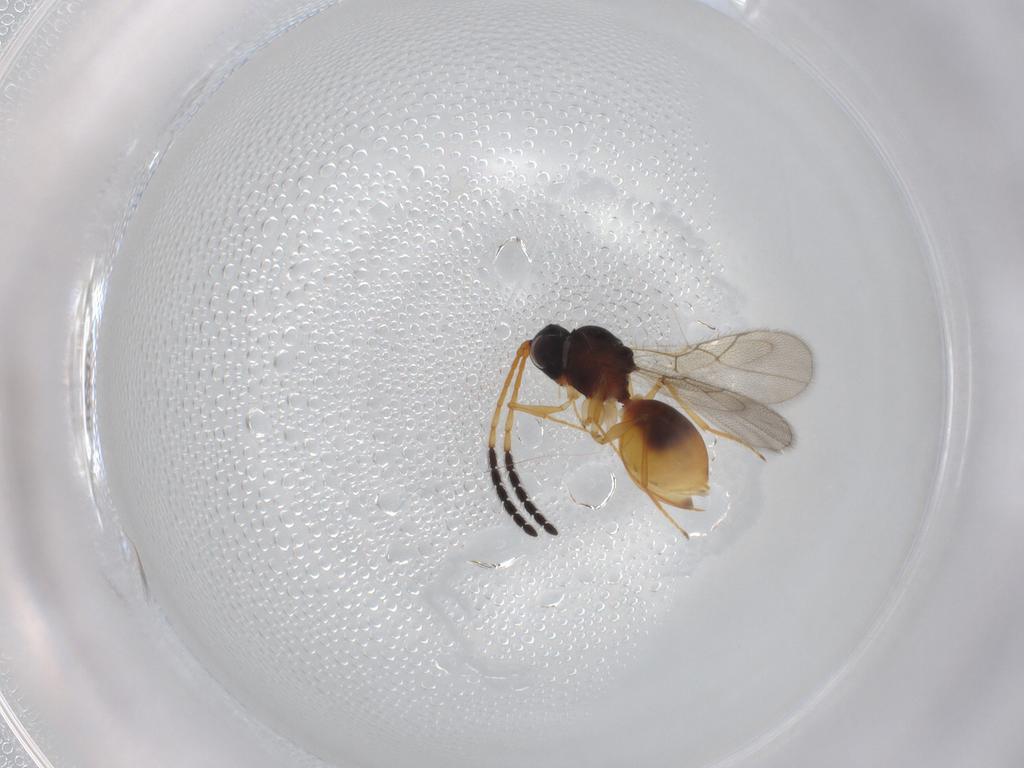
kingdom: Animalia
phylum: Arthropoda
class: Insecta
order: Hymenoptera
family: Figitidae
